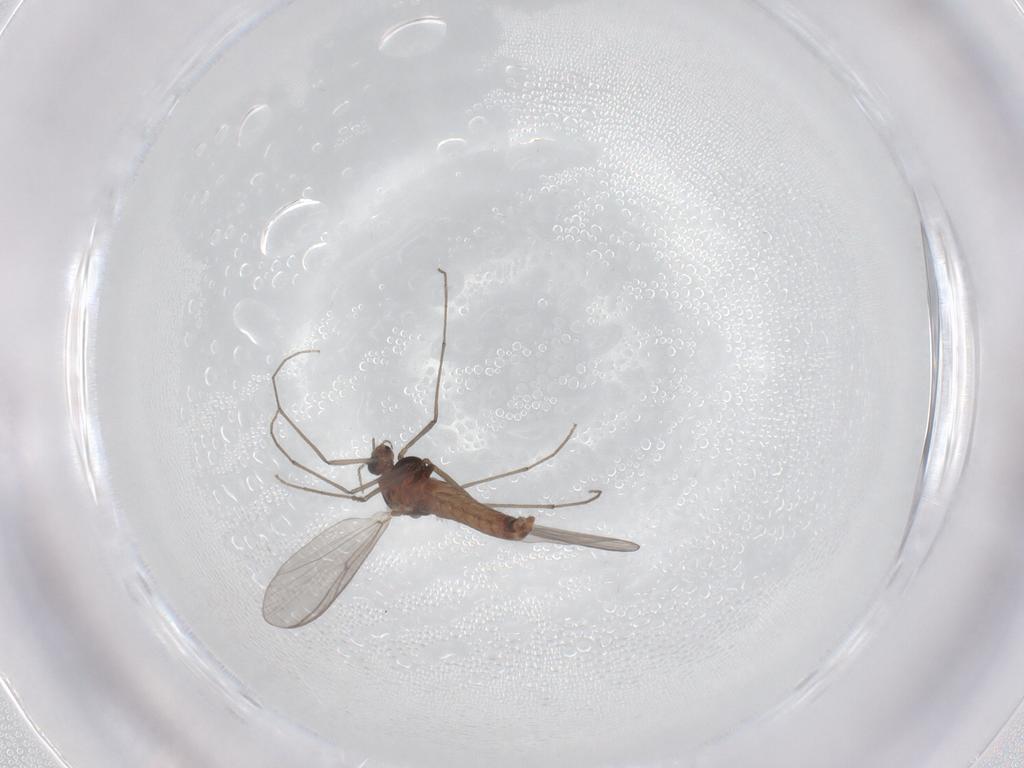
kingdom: Animalia
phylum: Arthropoda
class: Insecta
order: Diptera
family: Chironomidae
